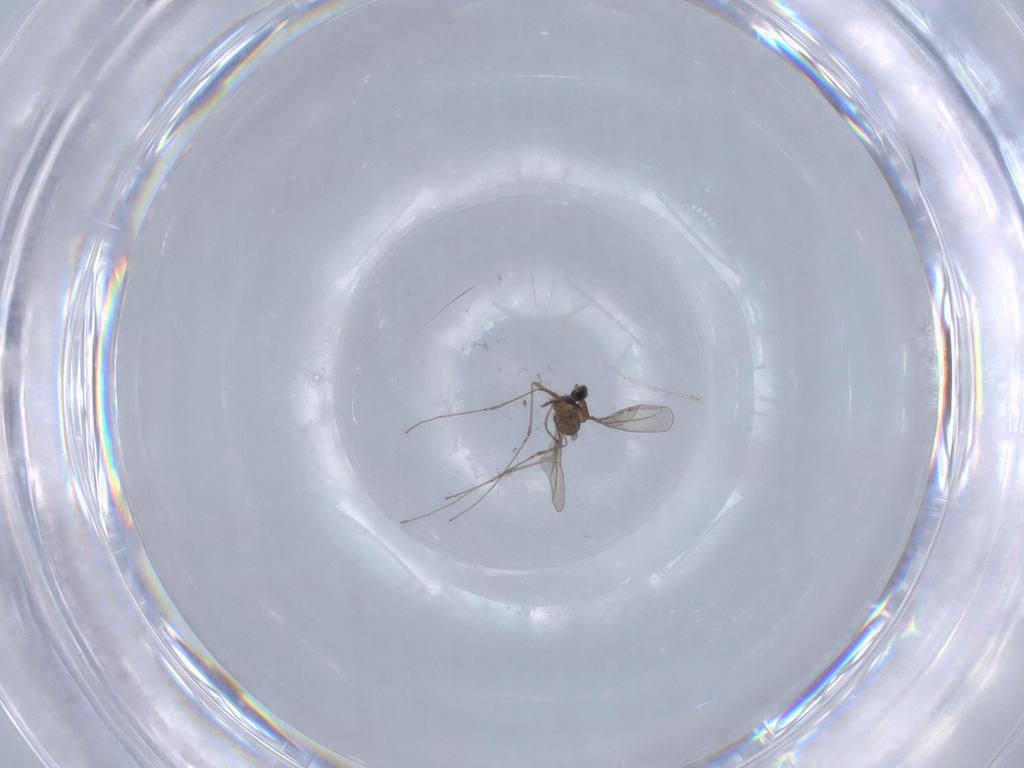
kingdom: Animalia
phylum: Arthropoda
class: Insecta
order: Diptera
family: Cecidomyiidae
